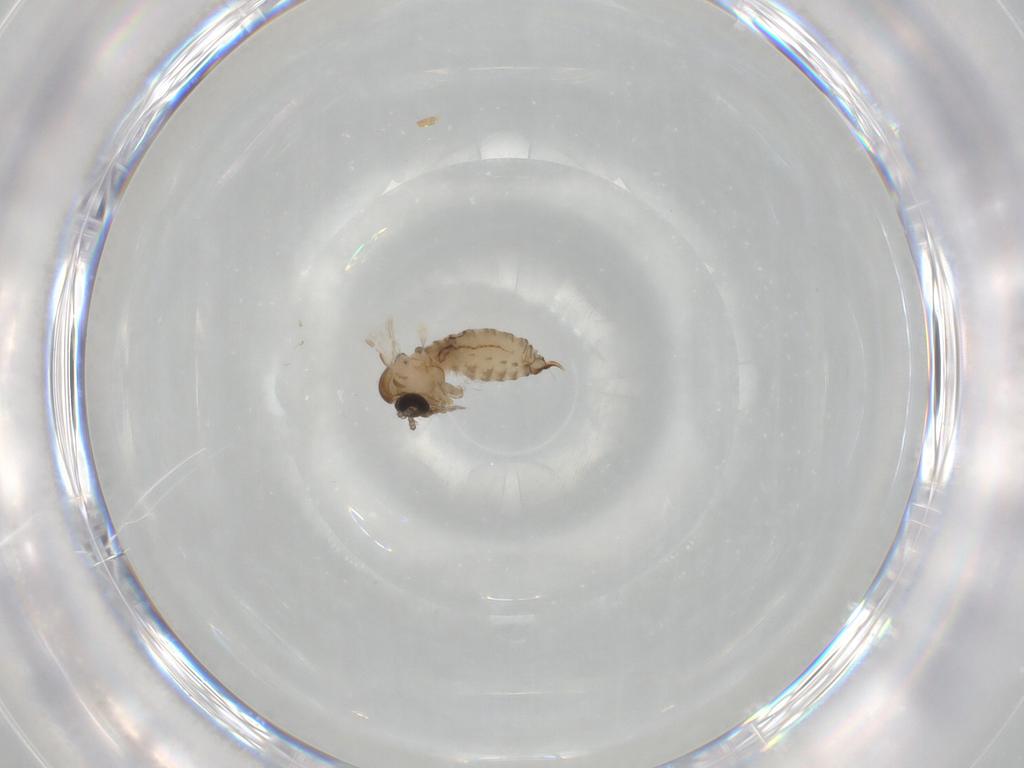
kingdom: Animalia
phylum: Arthropoda
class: Insecta
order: Diptera
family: Psychodidae
